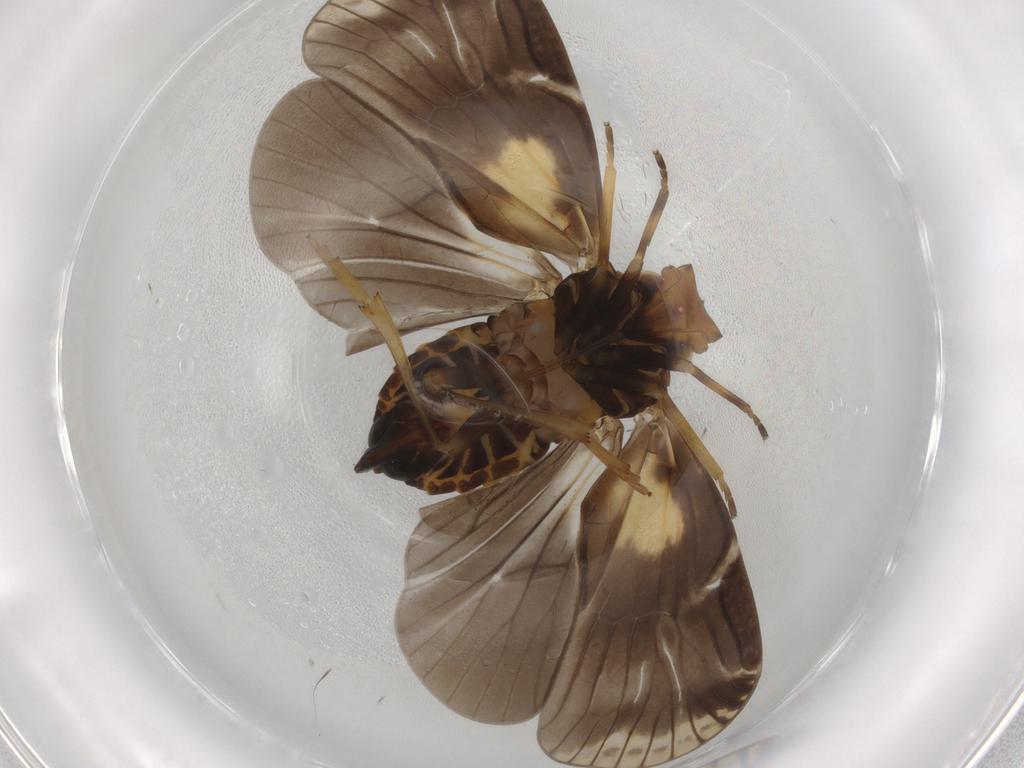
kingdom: Animalia
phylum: Arthropoda
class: Insecta
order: Hemiptera
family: Cixiidae
